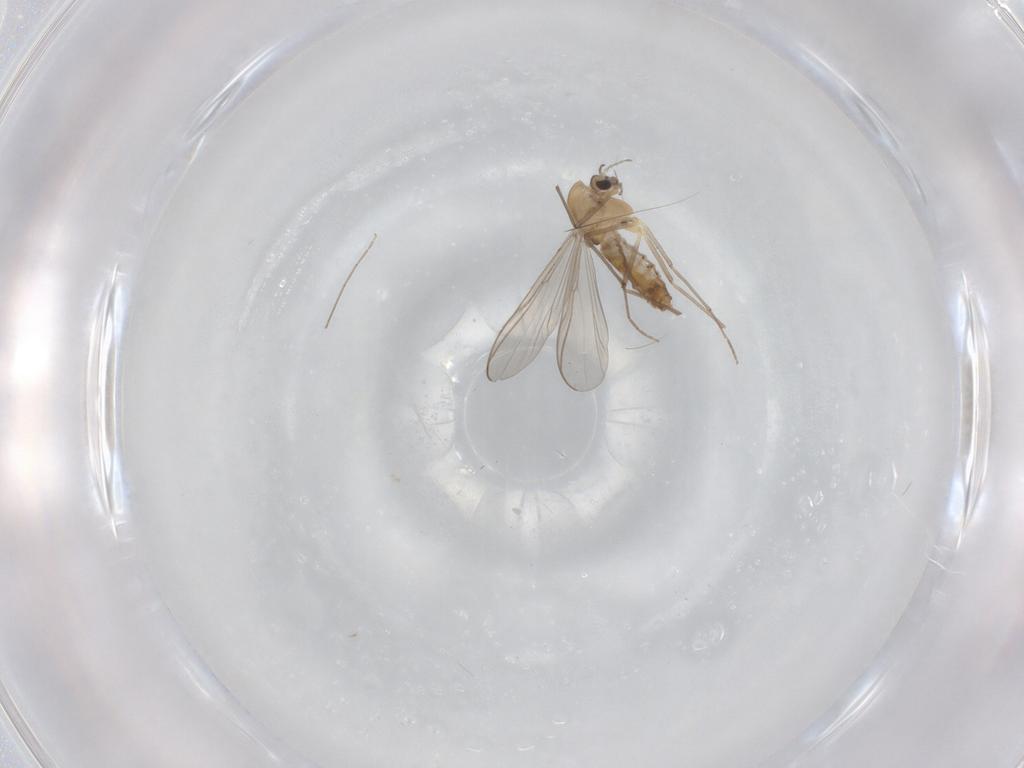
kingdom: Animalia
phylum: Arthropoda
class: Insecta
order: Diptera
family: Chironomidae
